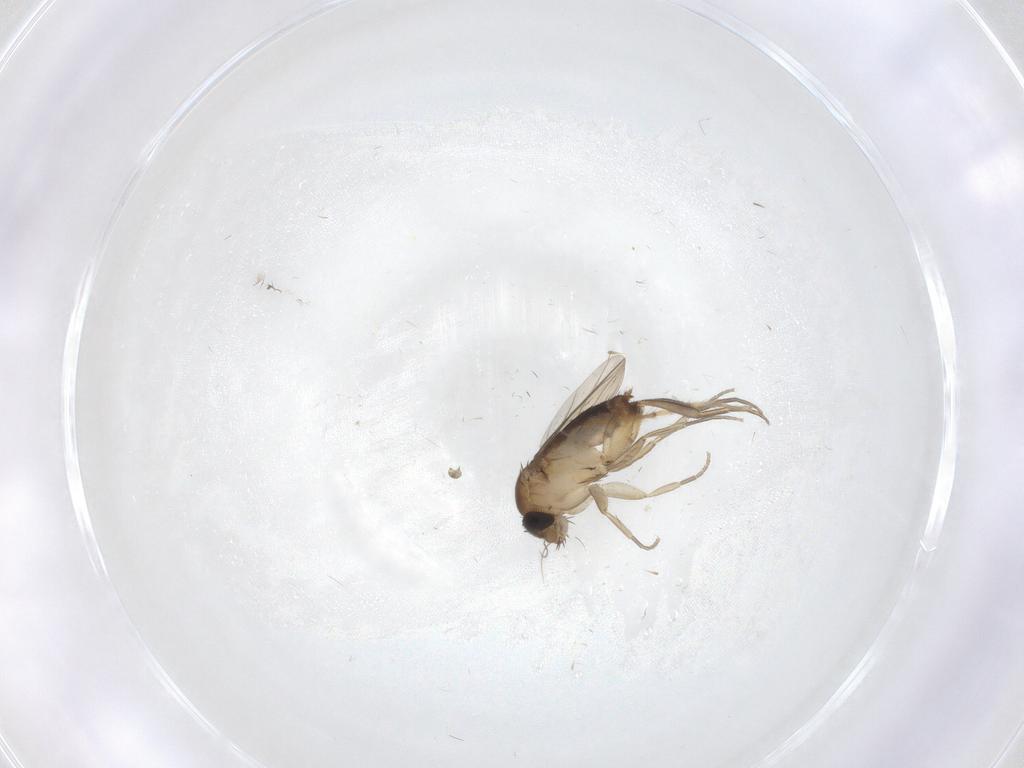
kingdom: Animalia
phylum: Arthropoda
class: Insecta
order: Diptera
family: Phoridae
